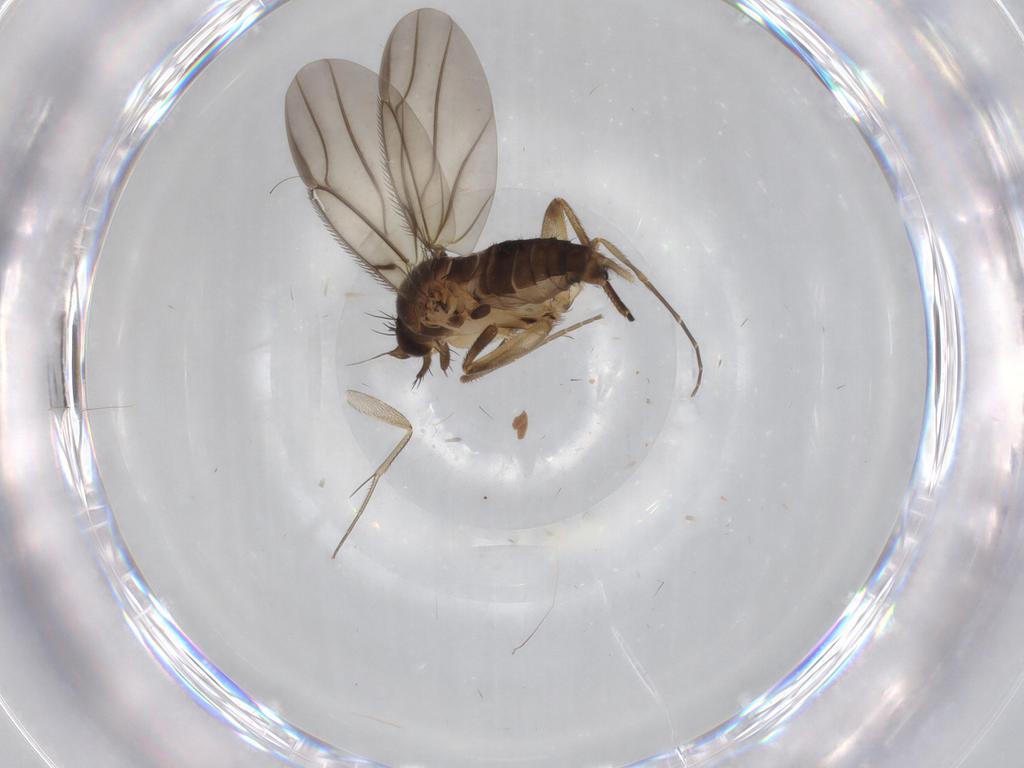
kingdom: Animalia
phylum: Arthropoda
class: Insecta
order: Diptera
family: Sciaridae
